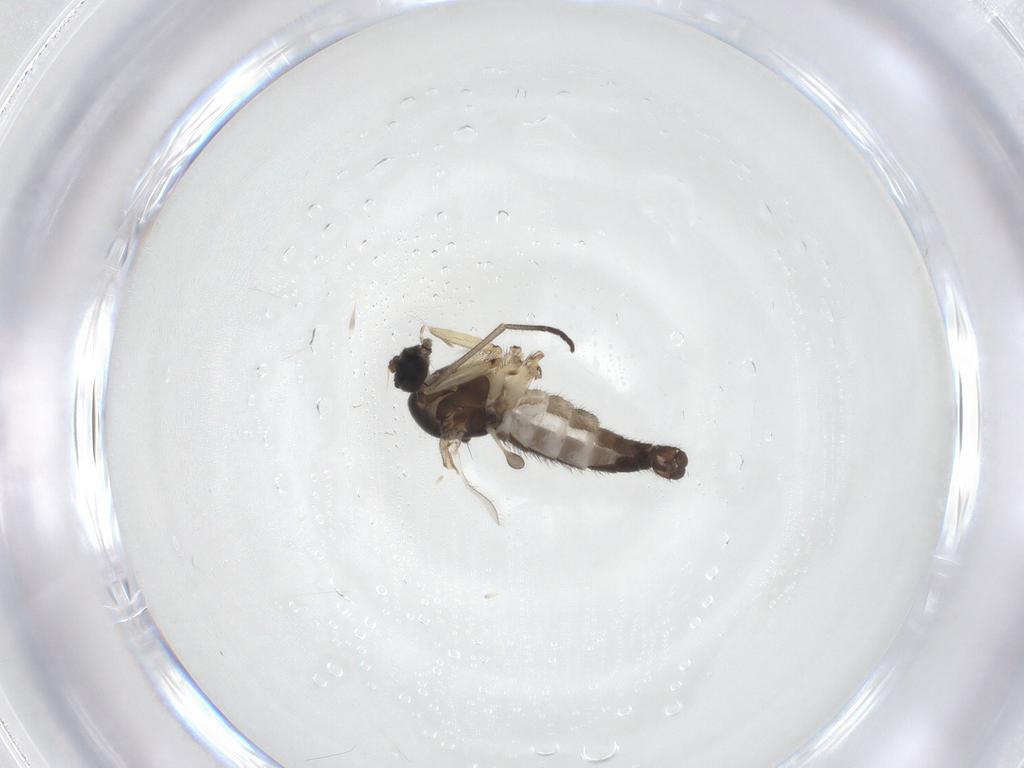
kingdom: Animalia
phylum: Arthropoda
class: Insecta
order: Diptera
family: Sciaridae
